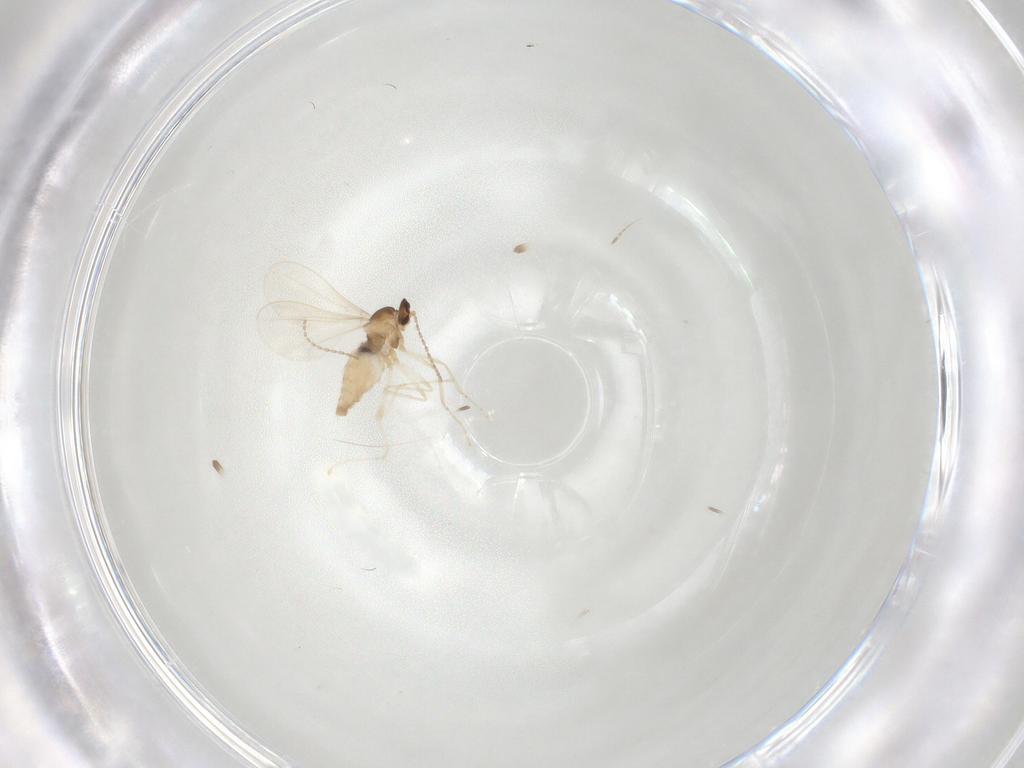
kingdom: Animalia
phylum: Arthropoda
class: Insecta
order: Diptera
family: Cecidomyiidae
